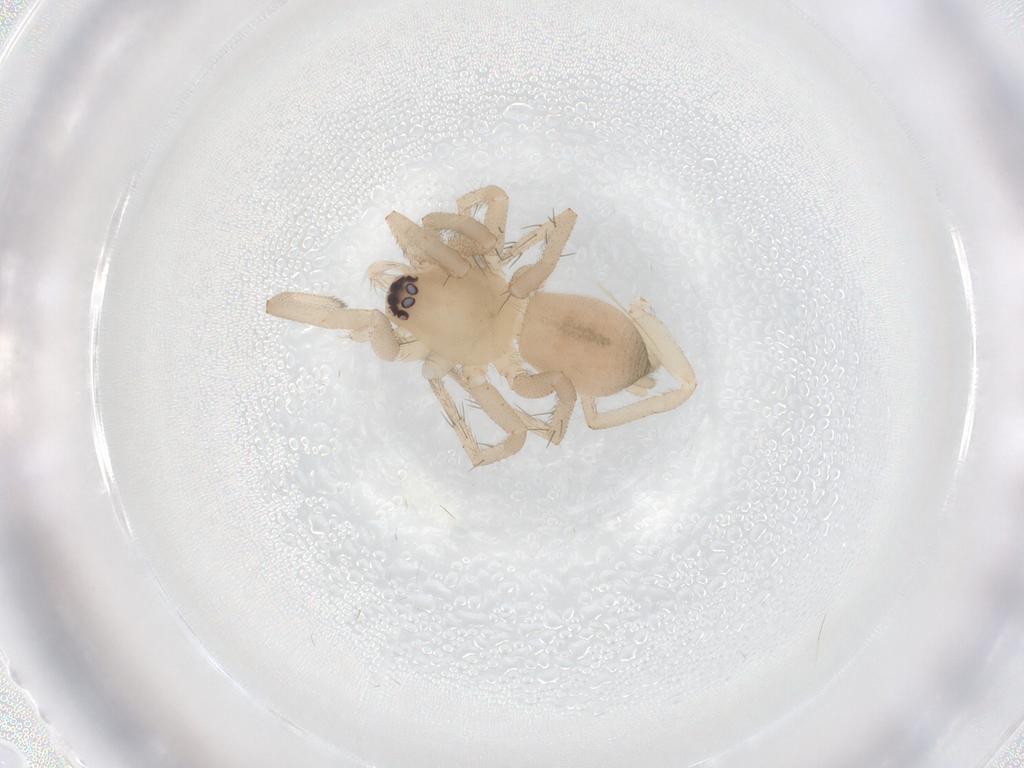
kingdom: Animalia
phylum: Arthropoda
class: Arachnida
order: Araneae
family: Gnaphosidae
